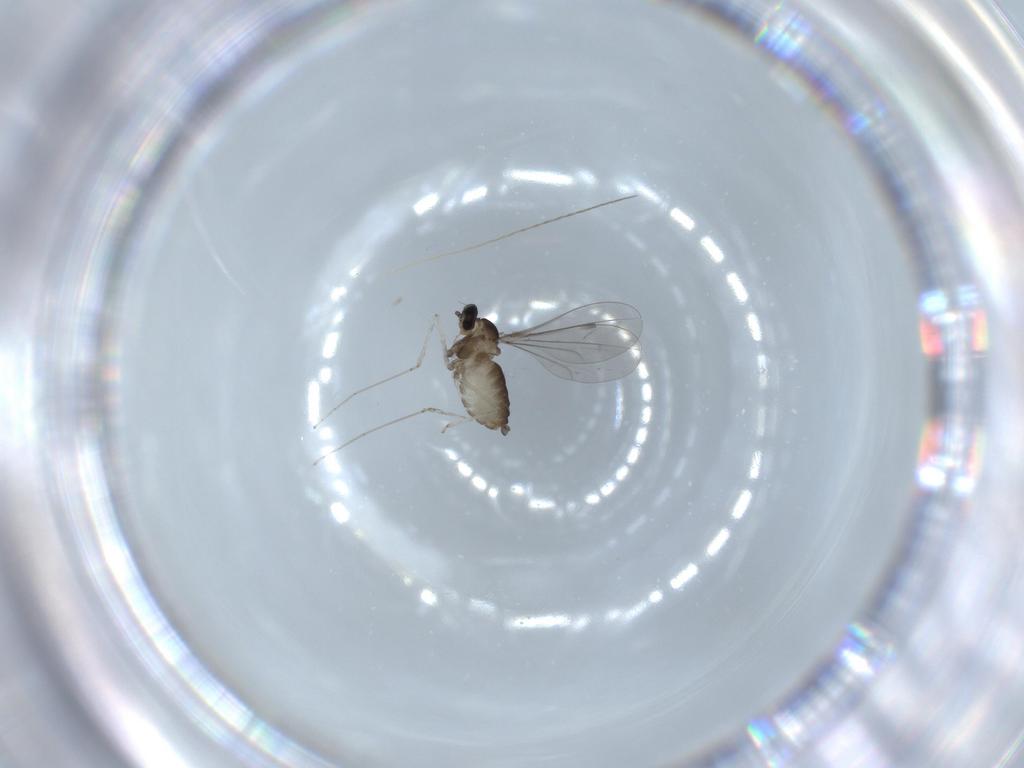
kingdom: Animalia
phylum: Arthropoda
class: Insecta
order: Diptera
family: Cecidomyiidae
